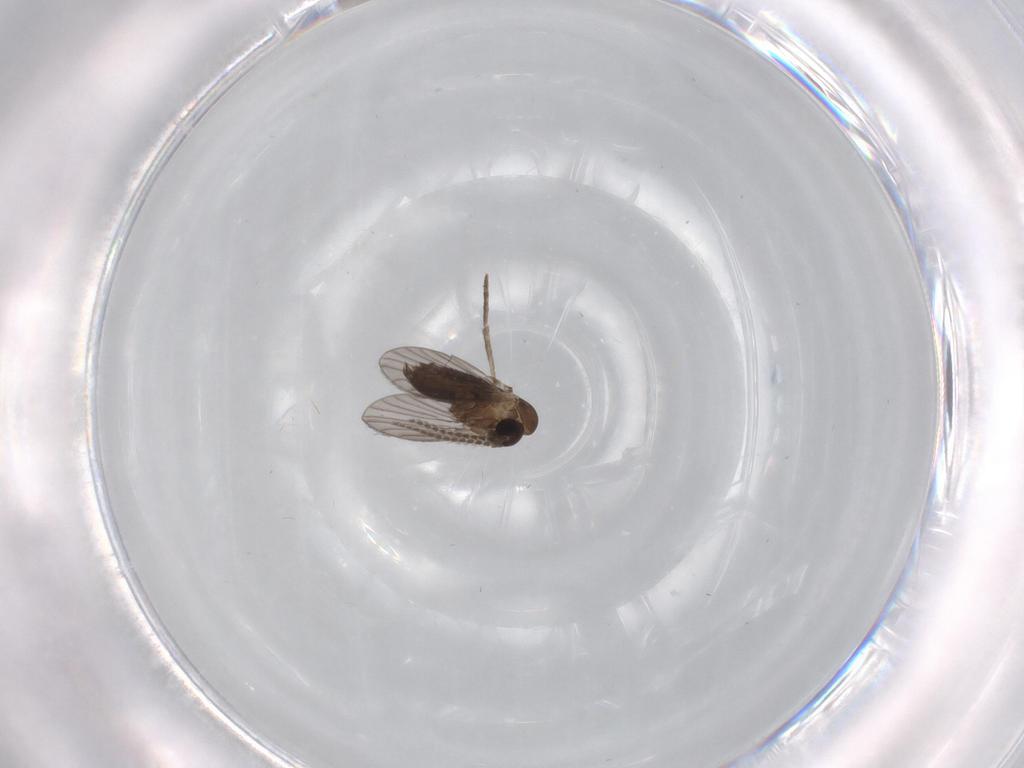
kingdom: Animalia
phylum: Arthropoda
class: Insecta
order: Diptera
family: Psychodidae
